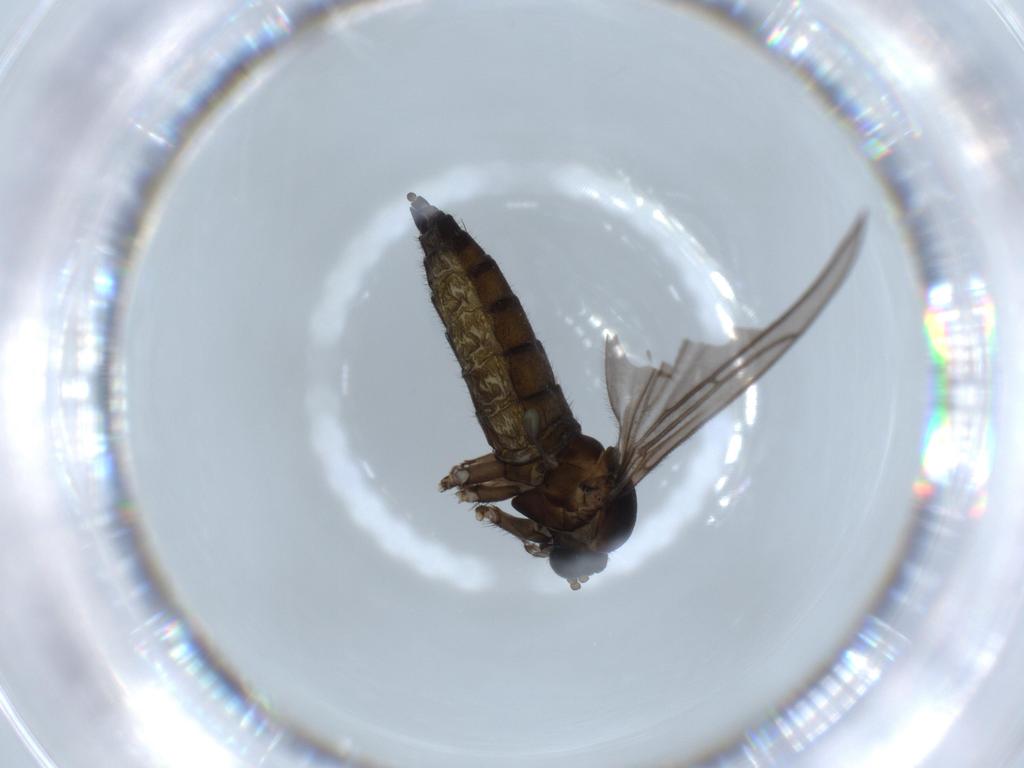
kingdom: Animalia
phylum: Arthropoda
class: Insecta
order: Diptera
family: Sciaridae
